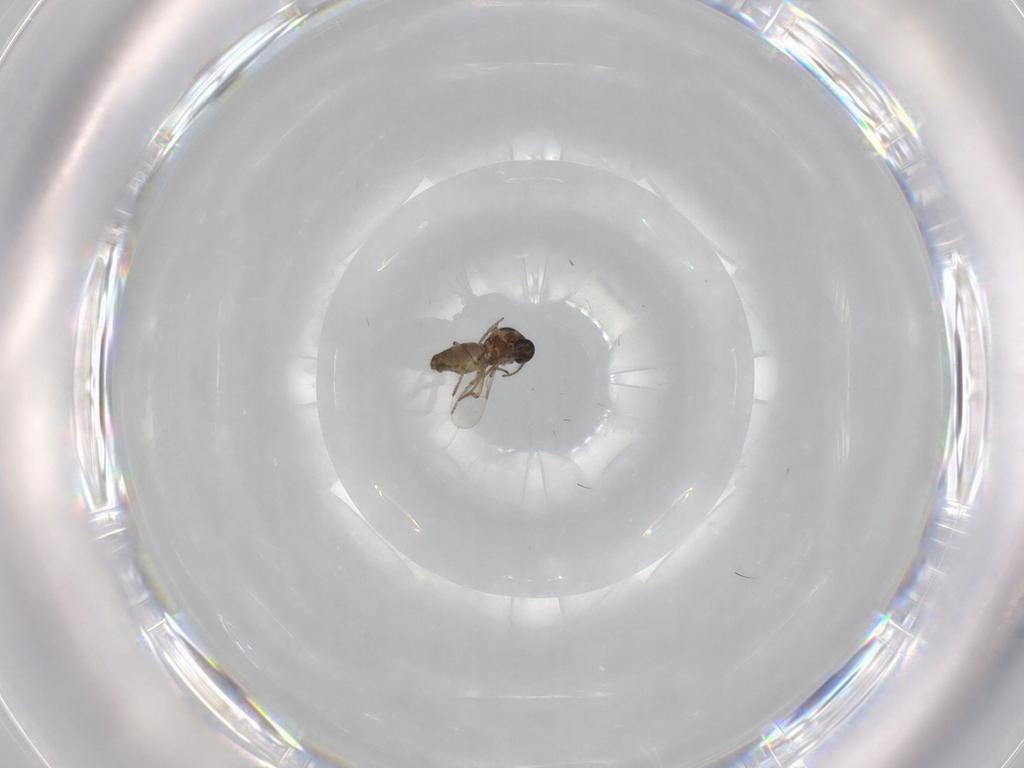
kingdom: Animalia
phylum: Arthropoda
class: Insecta
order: Diptera
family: Ceratopogonidae
